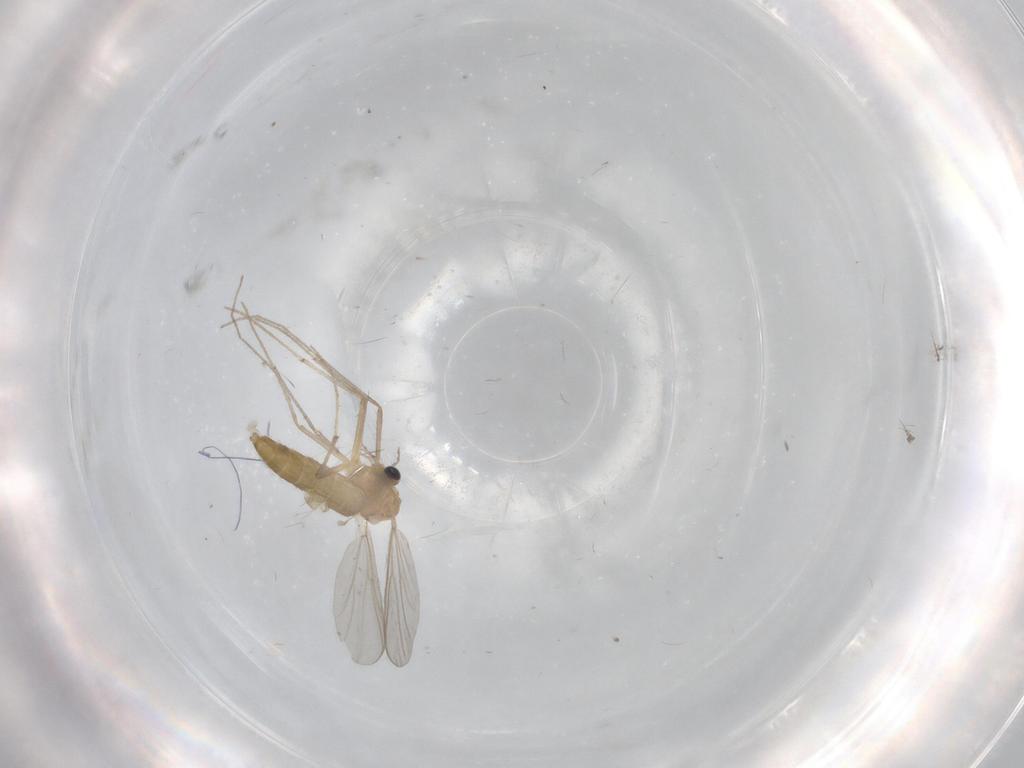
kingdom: Animalia
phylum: Arthropoda
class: Insecta
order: Diptera
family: Chironomidae
